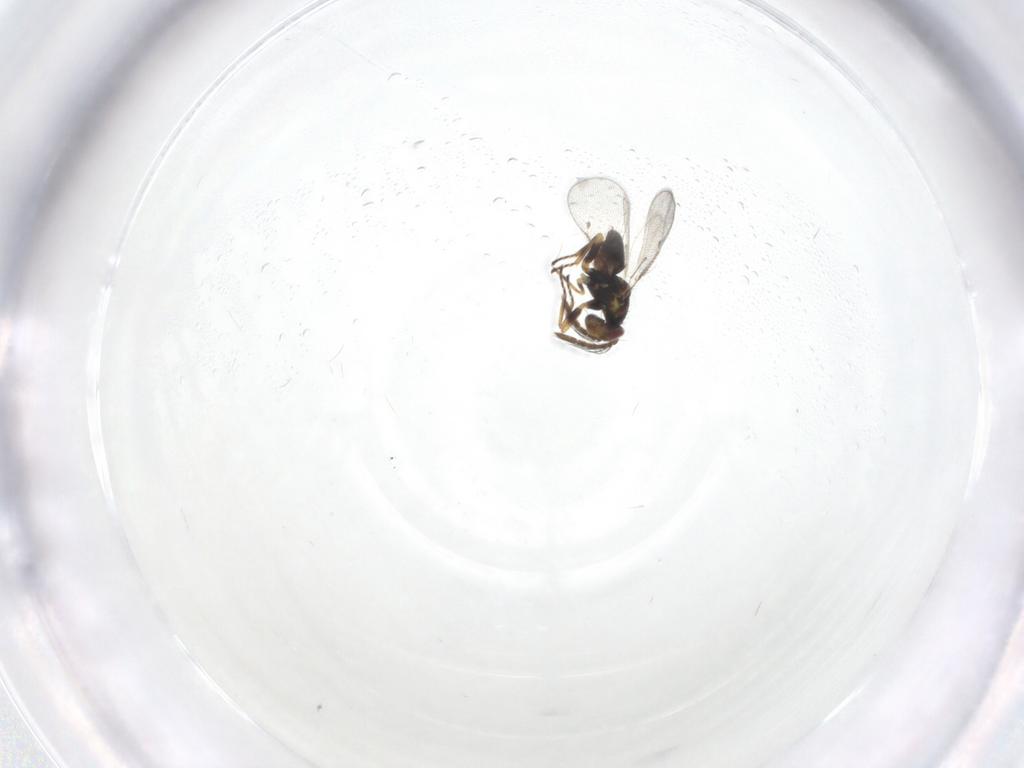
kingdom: Animalia
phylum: Arthropoda
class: Insecta
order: Hymenoptera
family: Eulophidae
